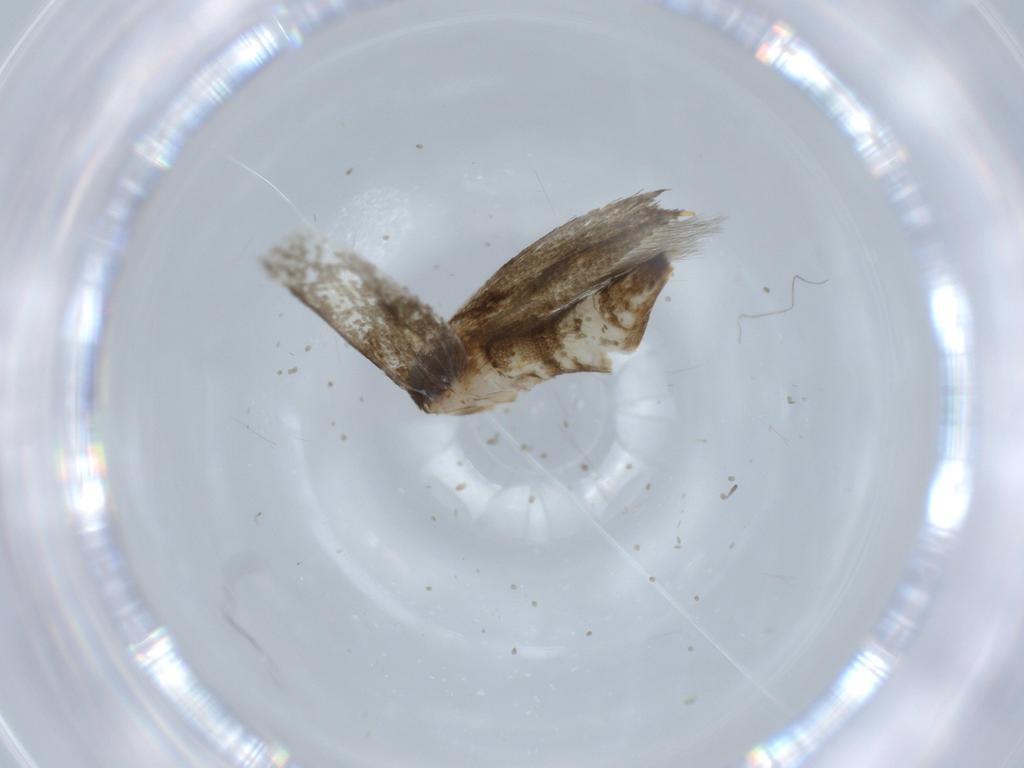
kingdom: Animalia
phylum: Arthropoda
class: Insecta
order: Lepidoptera
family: Tineidae
